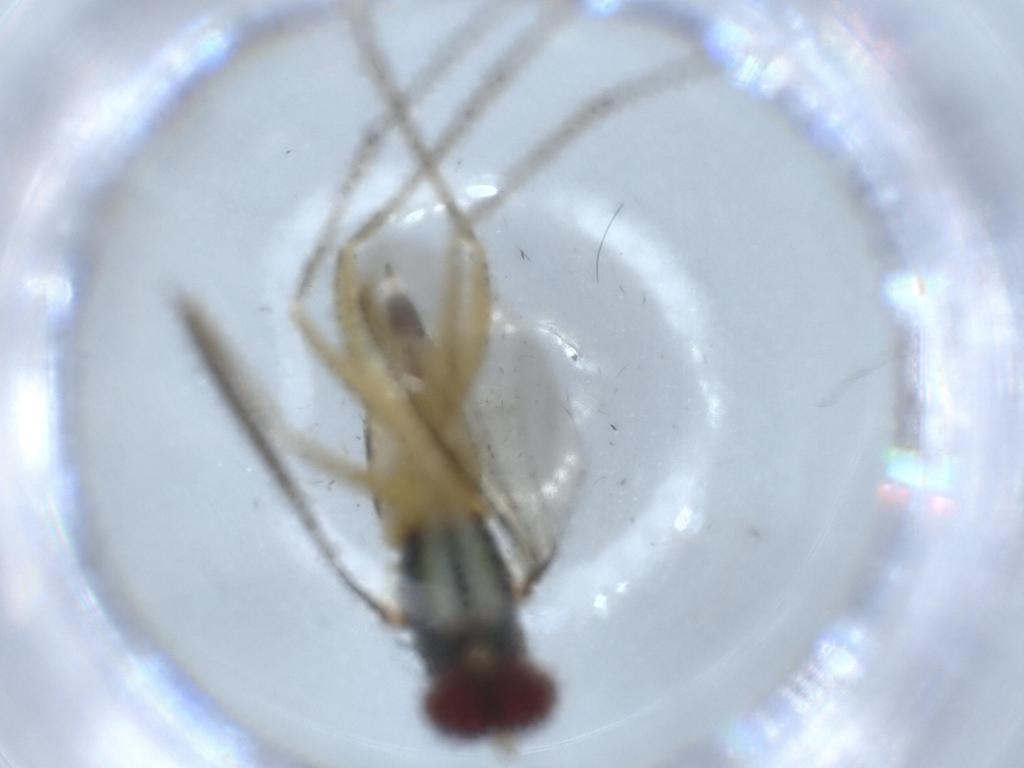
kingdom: Animalia
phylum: Arthropoda
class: Insecta
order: Diptera
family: Dolichopodidae
